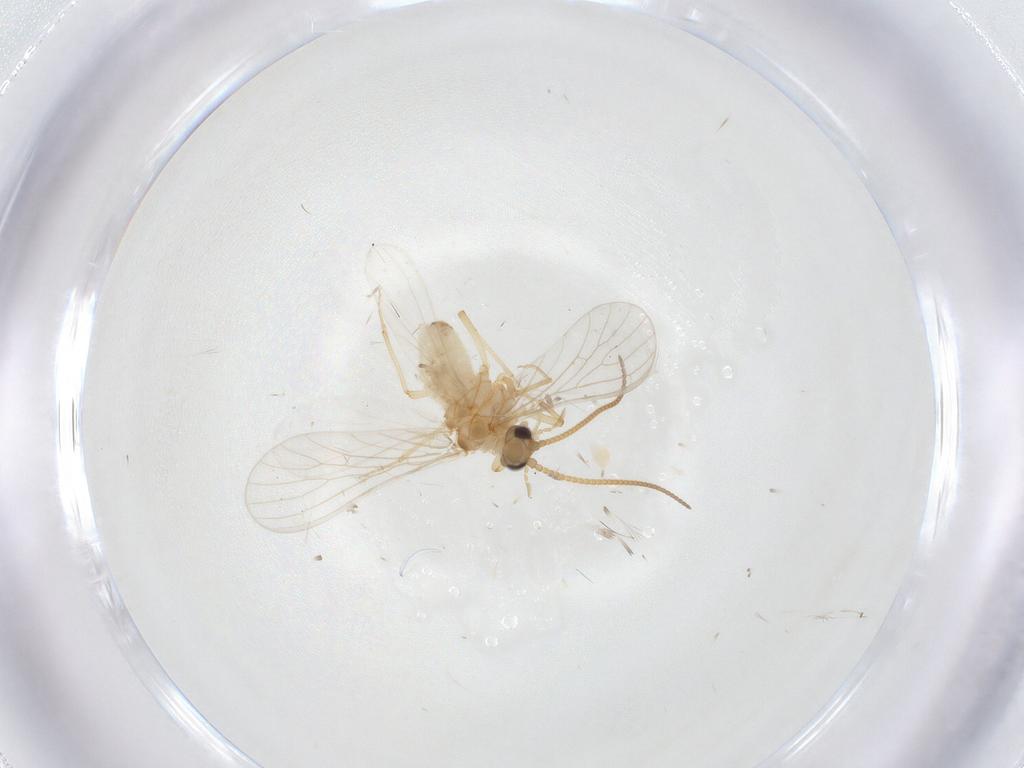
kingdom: Animalia
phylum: Arthropoda
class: Insecta
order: Neuroptera
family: Coniopterygidae
